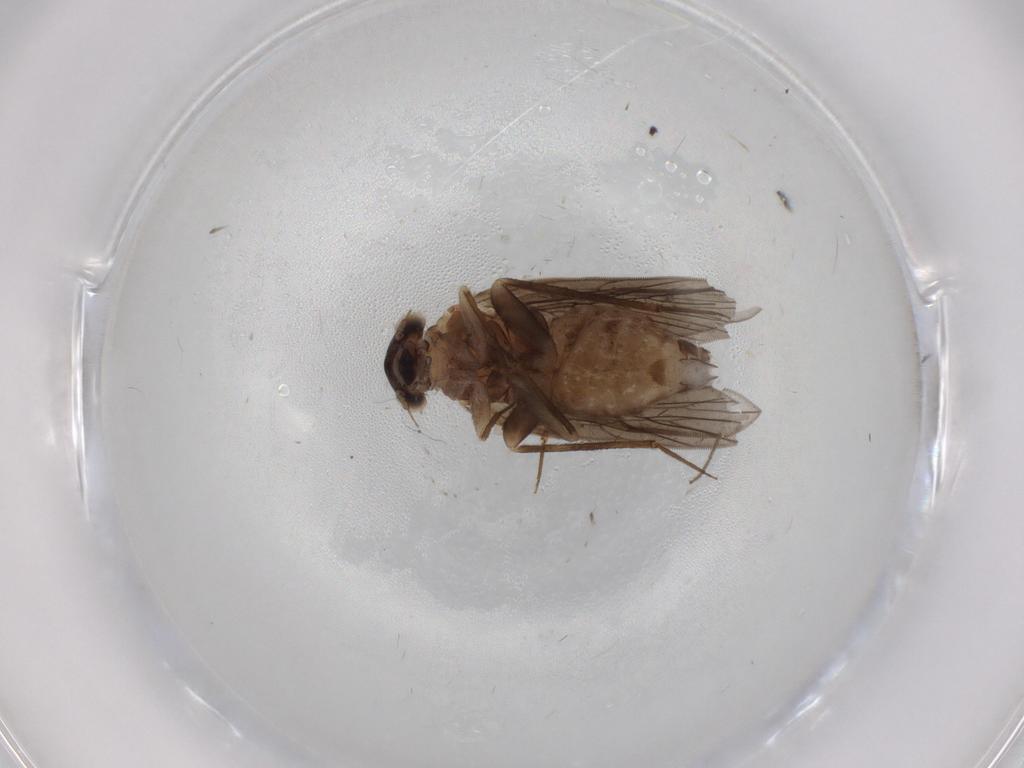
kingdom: Animalia
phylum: Arthropoda
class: Insecta
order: Psocodea
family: Lepidopsocidae
